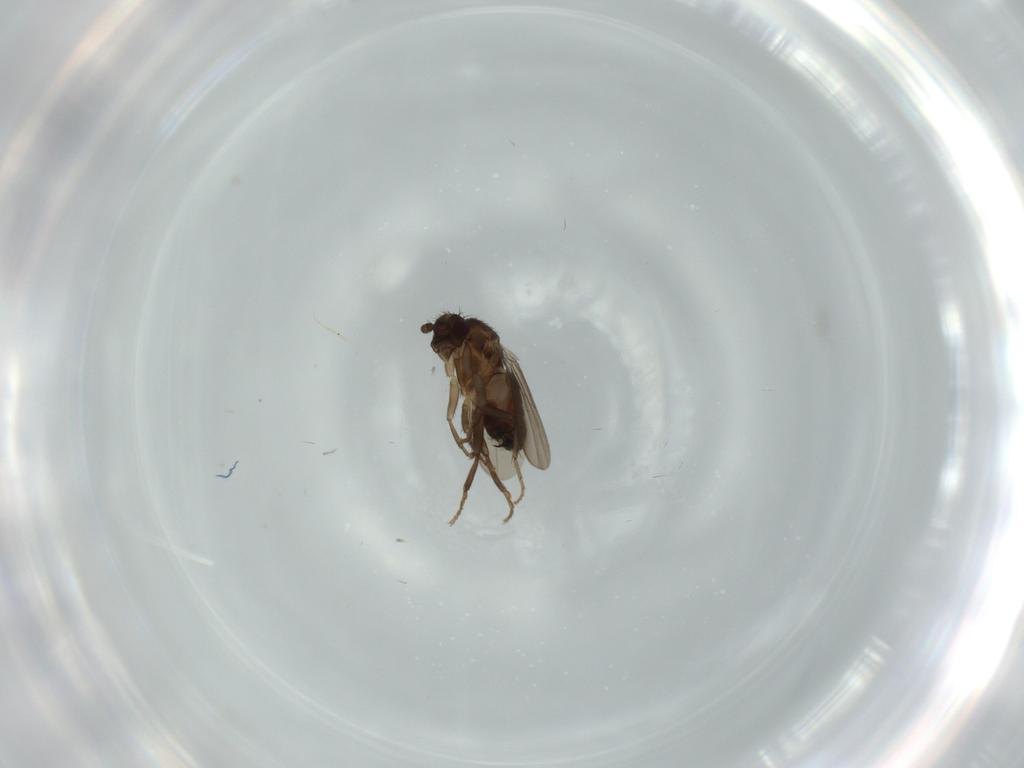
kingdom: Animalia
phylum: Arthropoda
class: Insecta
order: Diptera
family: Sphaeroceridae
